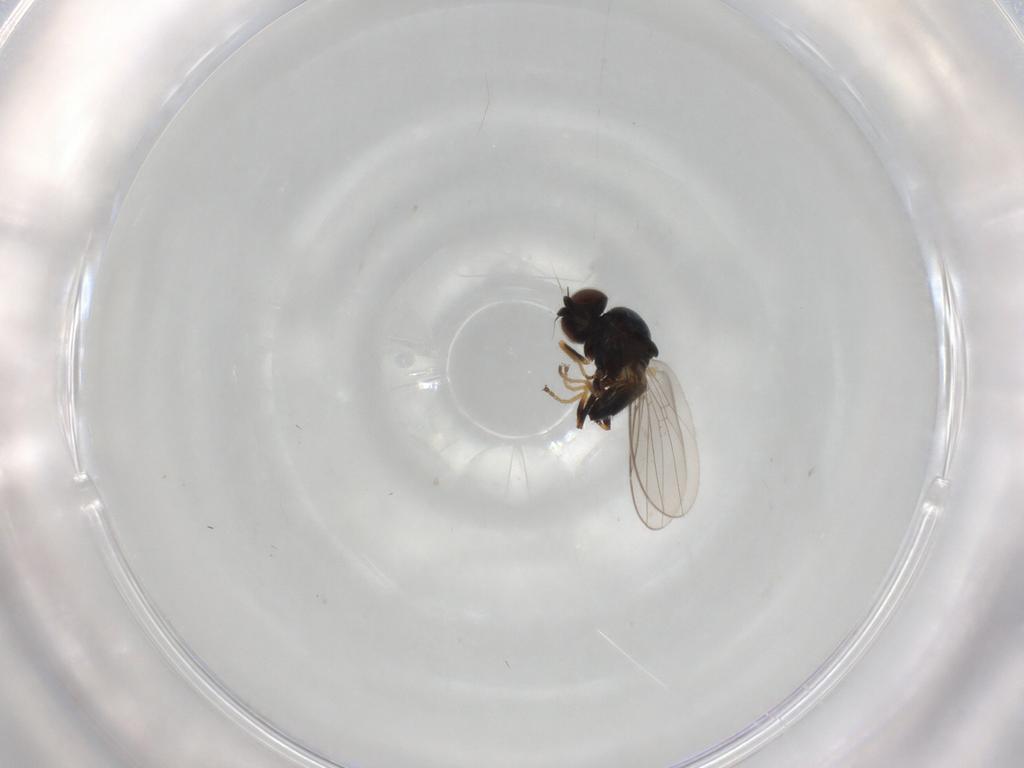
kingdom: Animalia
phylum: Arthropoda
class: Insecta
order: Diptera
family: Chloropidae
